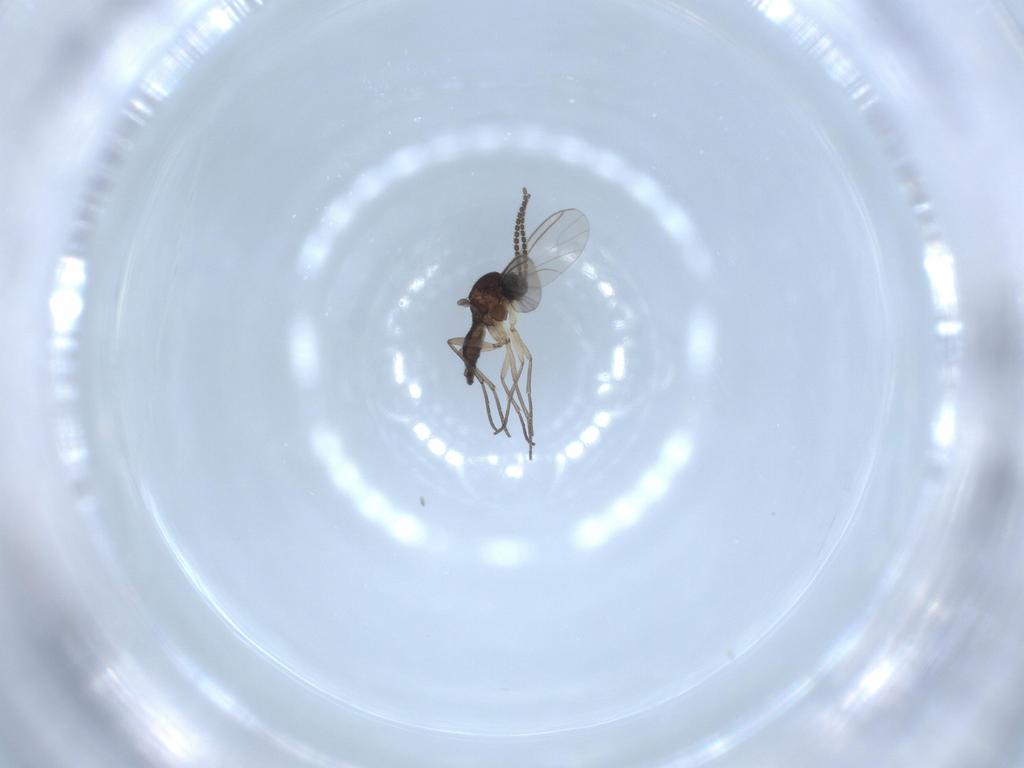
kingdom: Animalia
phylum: Arthropoda
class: Insecta
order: Diptera
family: Ceratopogonidae
